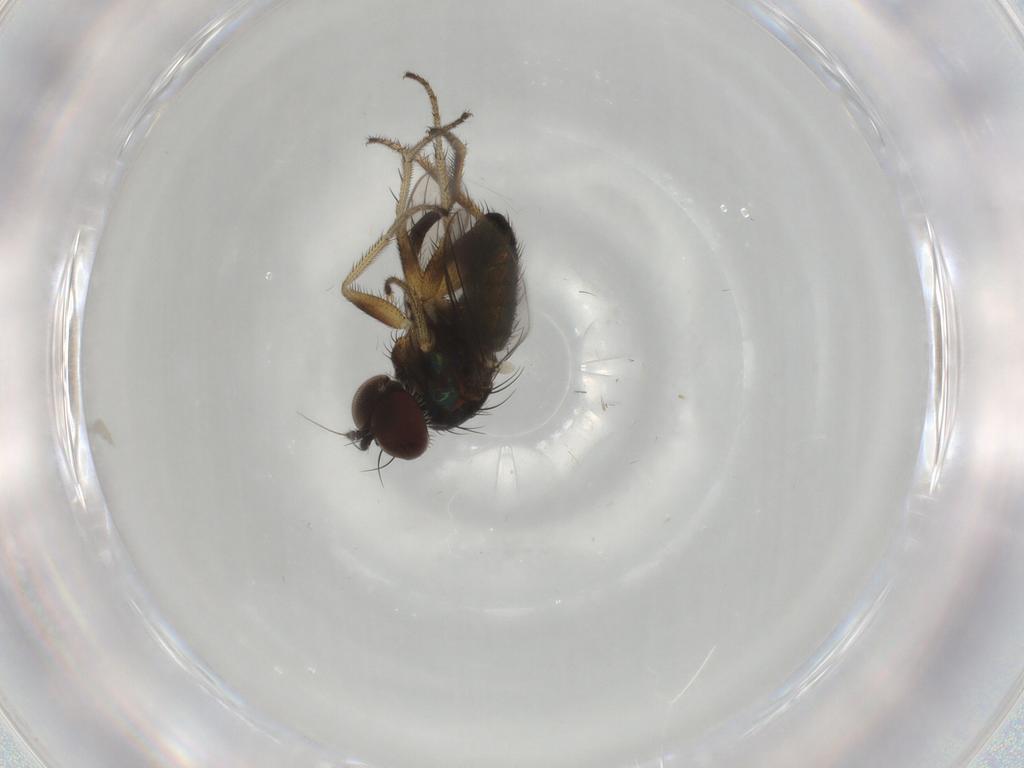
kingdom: Animalia
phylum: Arthropoda
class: Insecta
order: Diptera
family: Dolichopodidae
